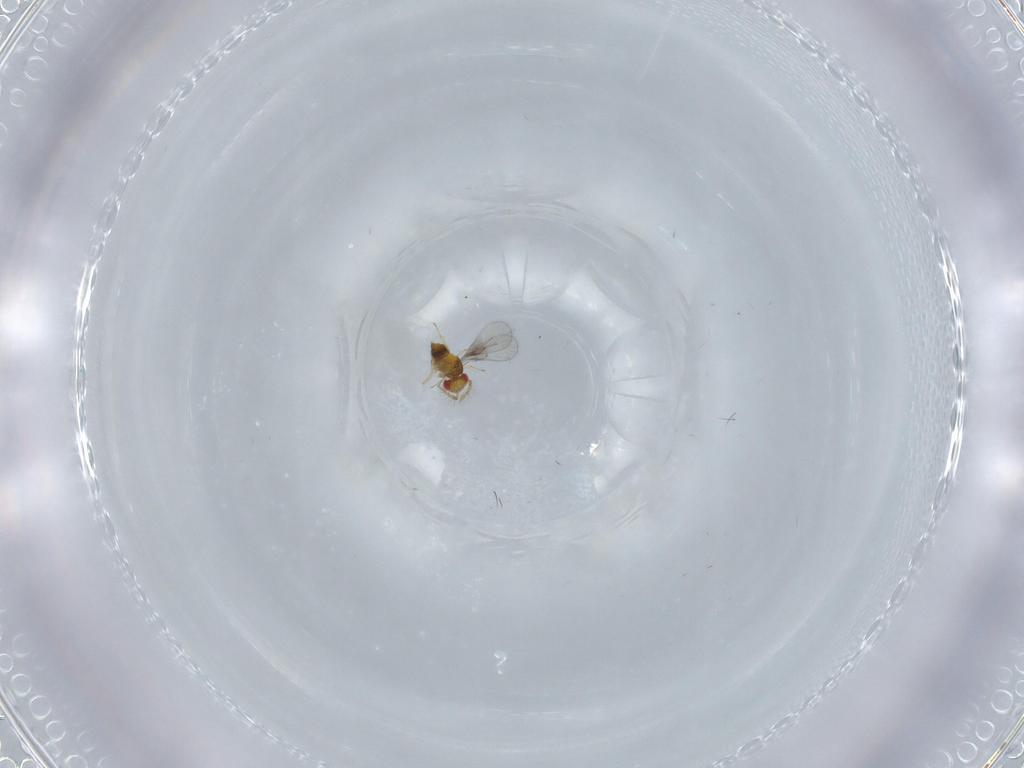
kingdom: Animalia
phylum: Arthropoda
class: Insecta
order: Hymenoptera
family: Trichogrammatidae
